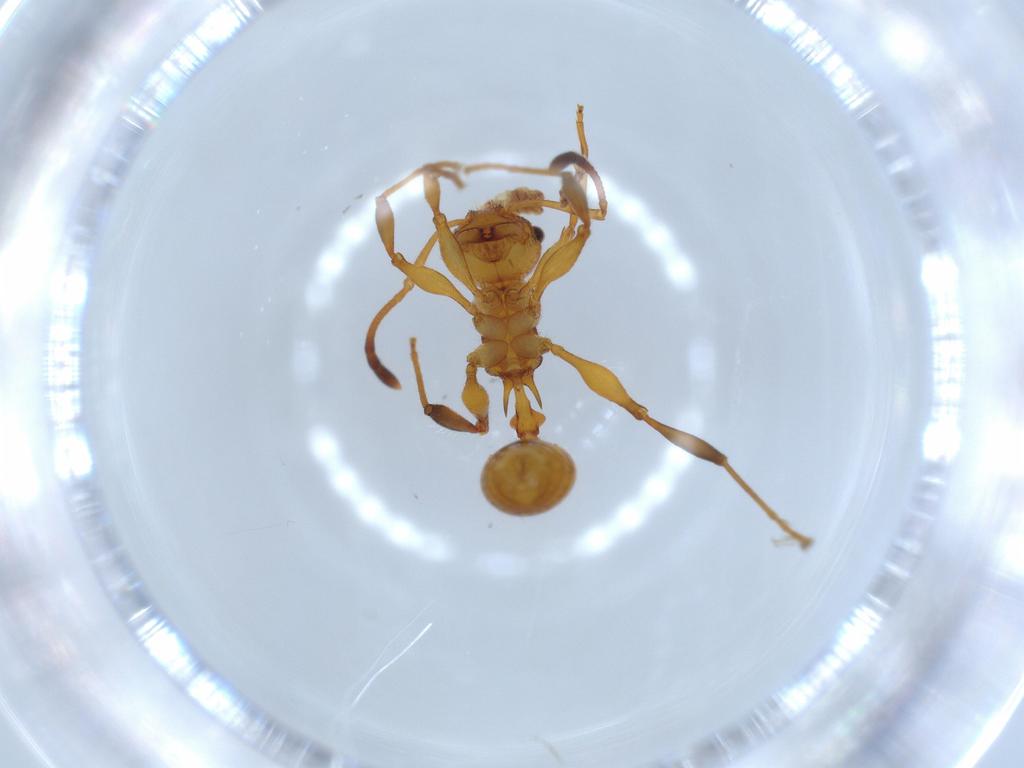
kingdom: Animalia
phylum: Arthropoda
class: Insecta
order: Hymenoptera
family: Formicidae
